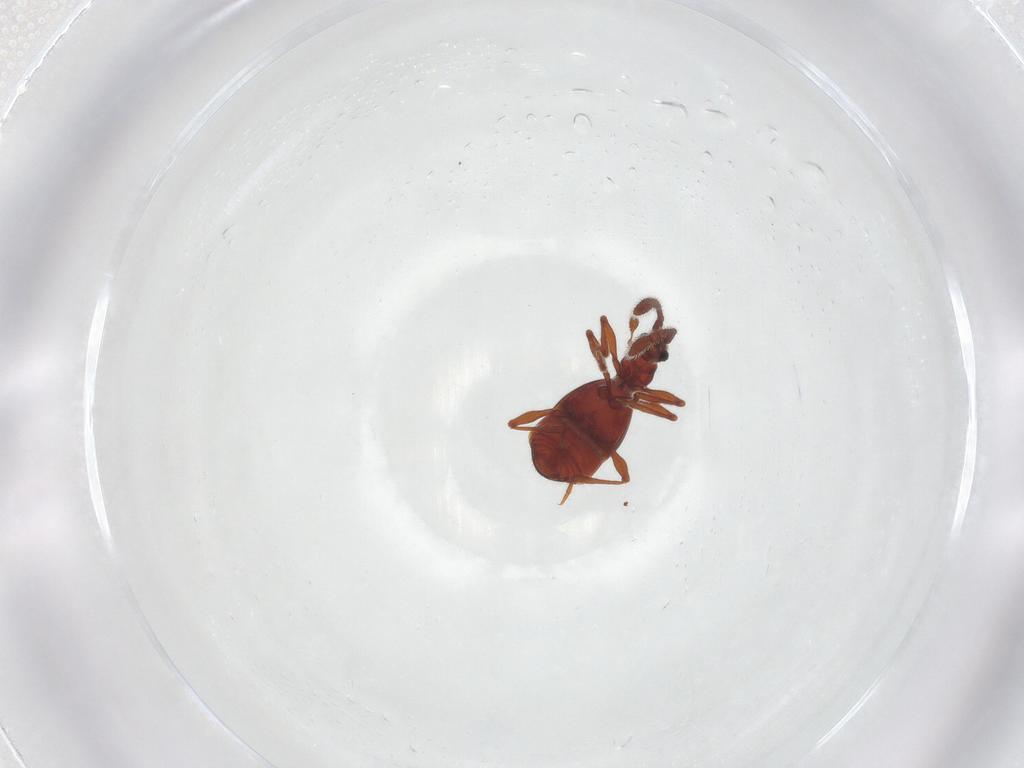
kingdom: Animalia
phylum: Arthropoda
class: Insecta
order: Coleoptera
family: Staphylinidae
